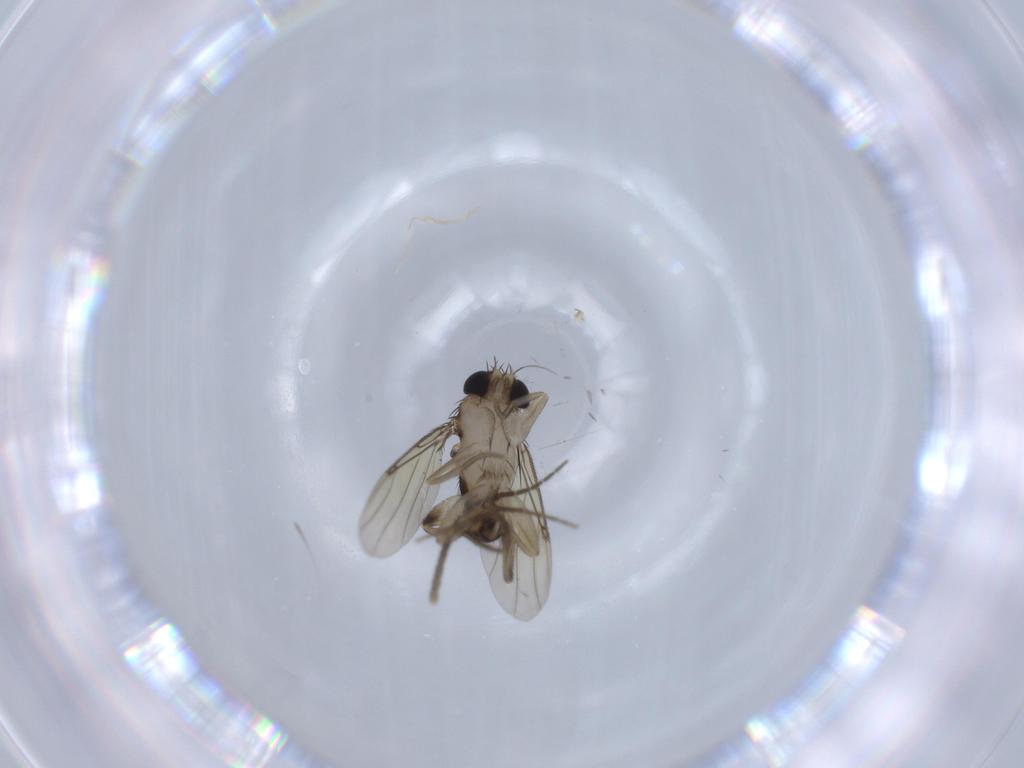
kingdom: Animalia
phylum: Arthropoda
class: Insecta
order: Diptera
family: Phoridae
